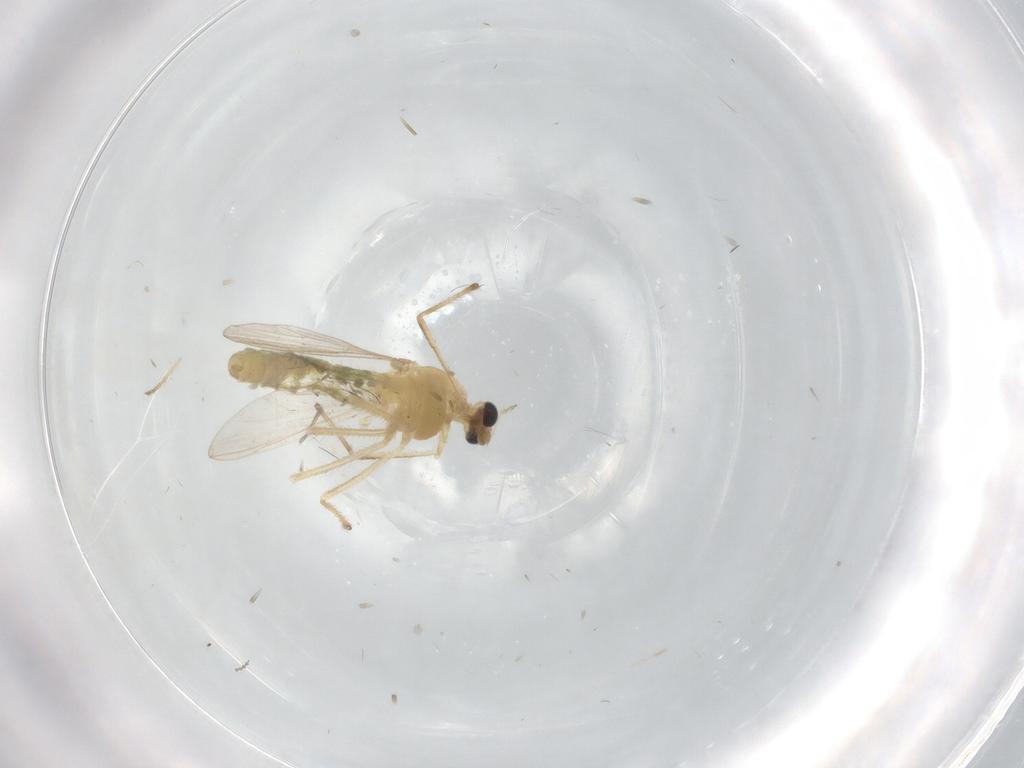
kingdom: Animalia
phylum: Arthropoda
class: Insecta
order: Diptera
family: Chironomidae
